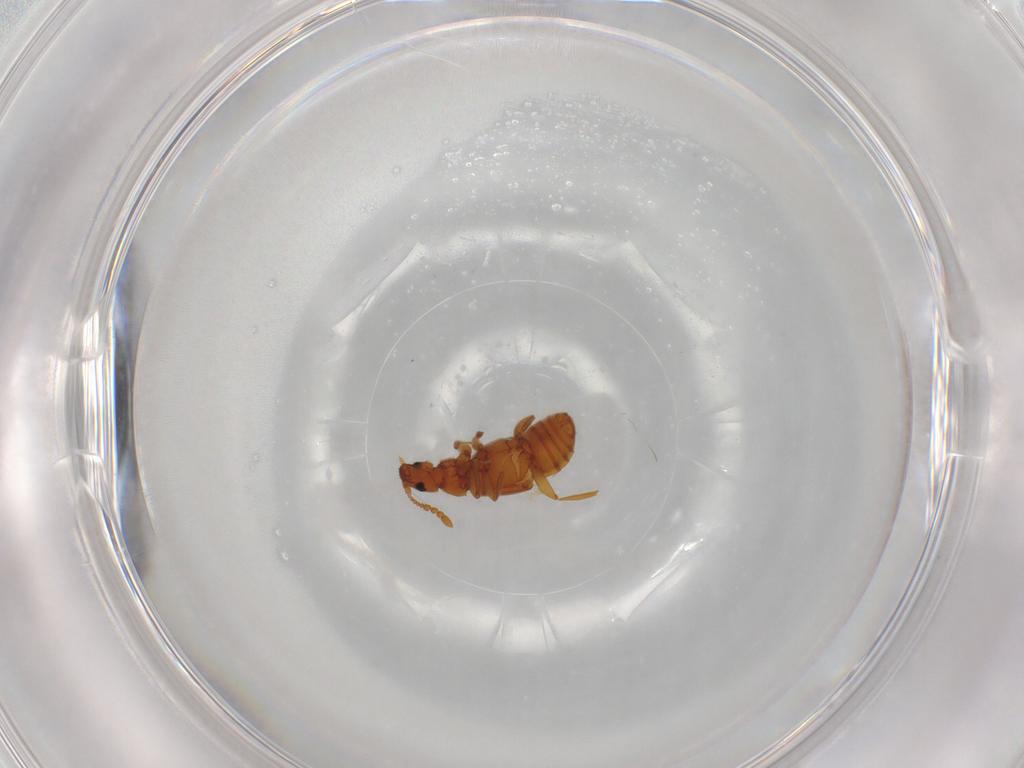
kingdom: Animalia
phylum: Arthropoda
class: Insecta
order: Coleoptera
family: Staphylinidae
